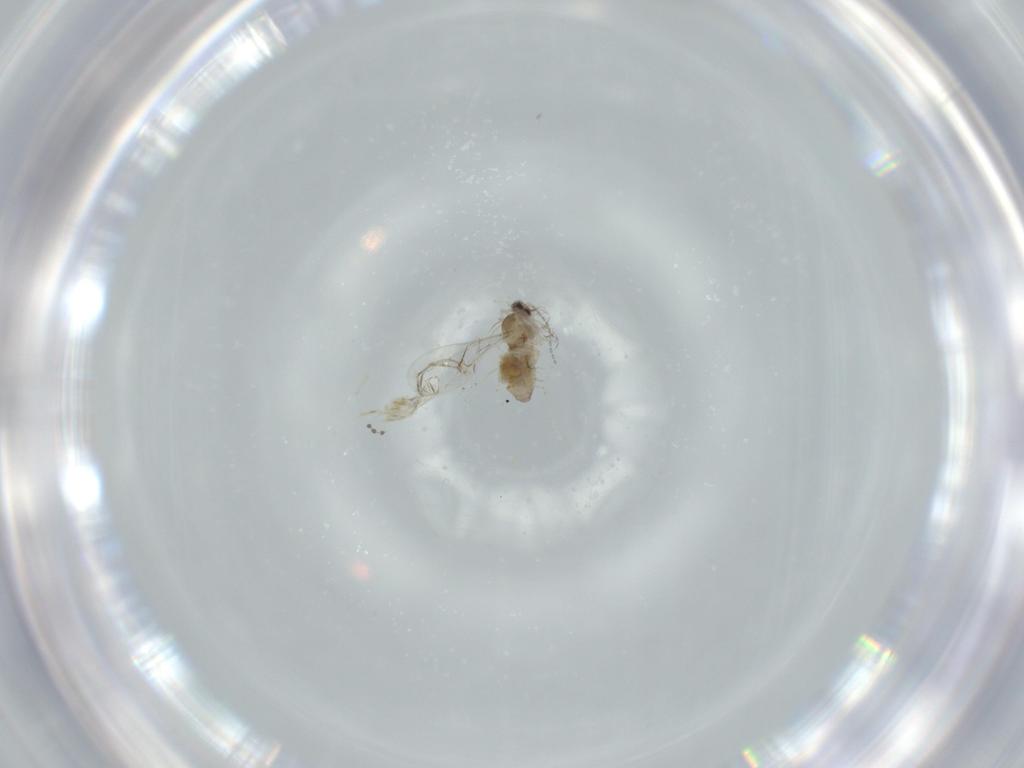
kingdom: Animalia
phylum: Arthropoda
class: Insecta
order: Diptera
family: Cecidomyiidae
